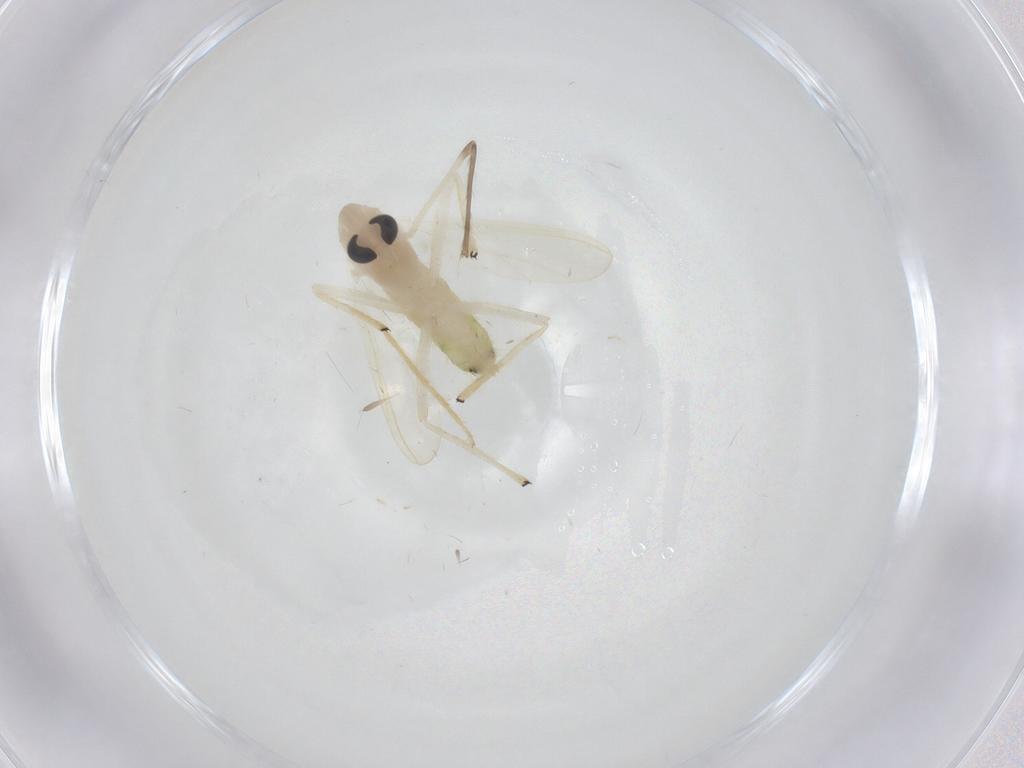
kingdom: Animalia
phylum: Arthropoda
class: Insecta
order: Diptera
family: Chironomidae
